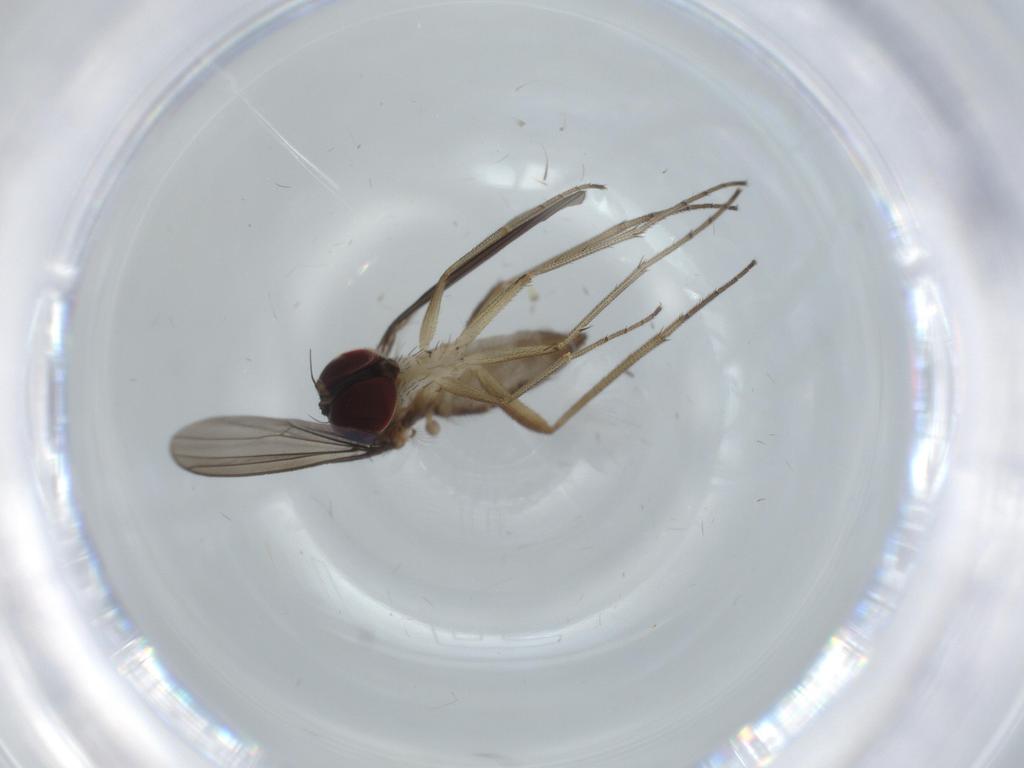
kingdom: Animalia
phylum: Arthropoda
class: Insecta
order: Diptera
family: Dolichopodidae
